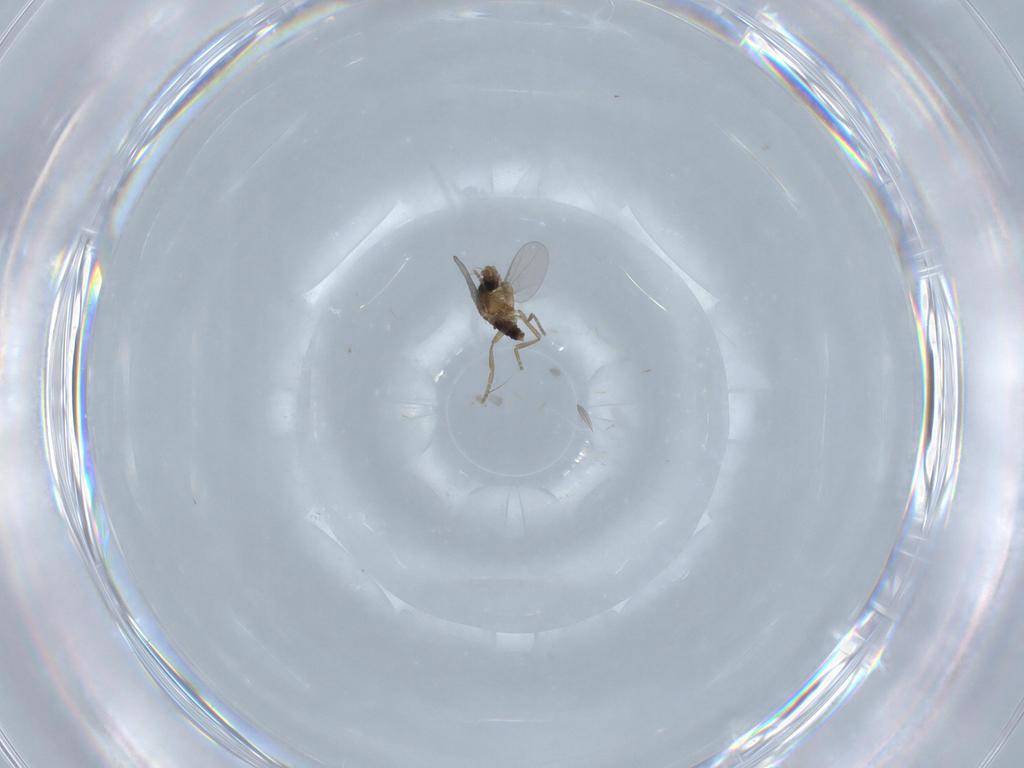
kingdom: Animalia
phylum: Arthropoda
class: Insecta
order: Diptera
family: Phoridae
